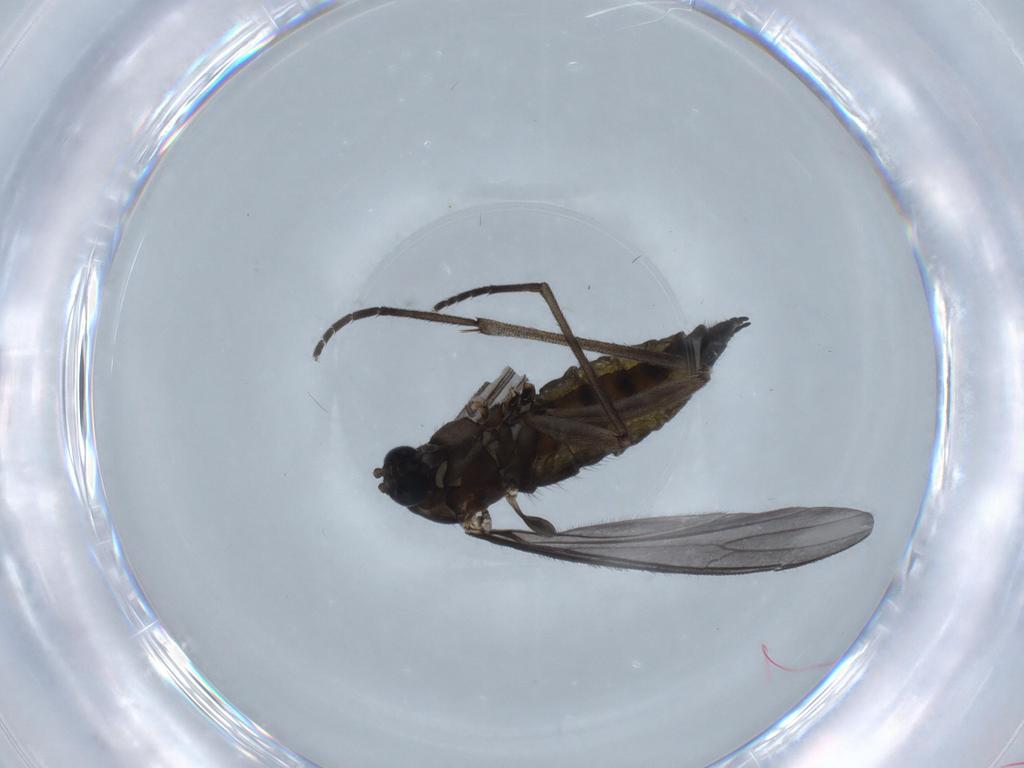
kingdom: Animalia
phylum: Arthropoda
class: Insecta
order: Diptera
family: Sciaridae
